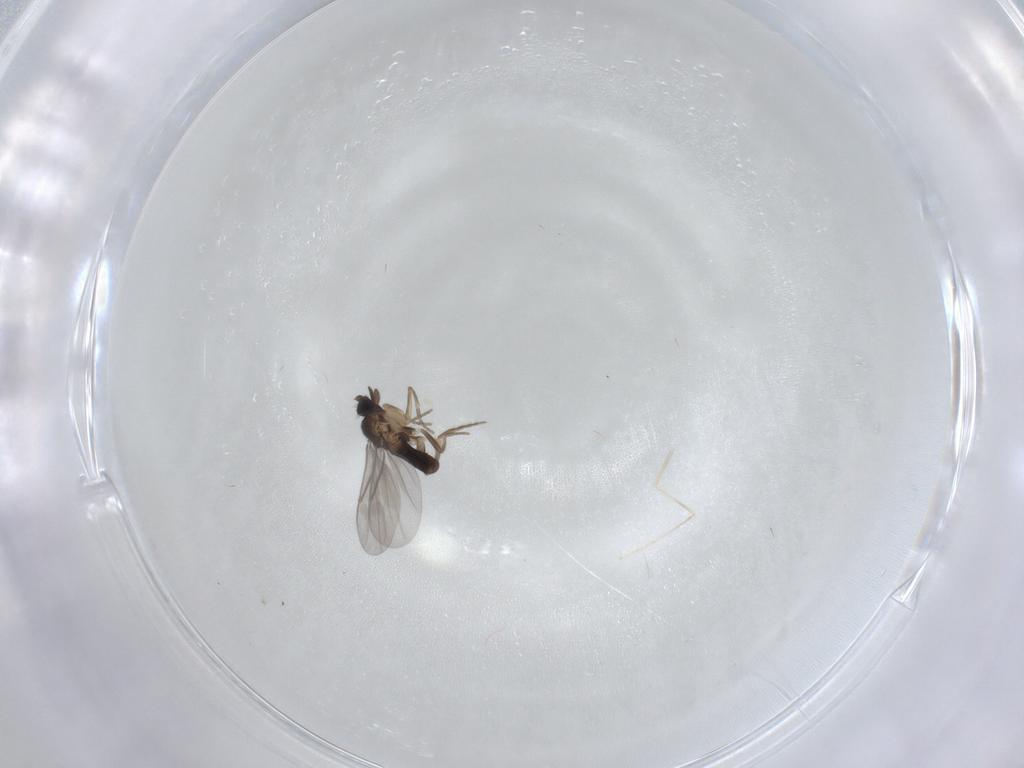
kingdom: Animalia
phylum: Arthropoda
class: Insecta
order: Diptera
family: Cecidomyiidae
